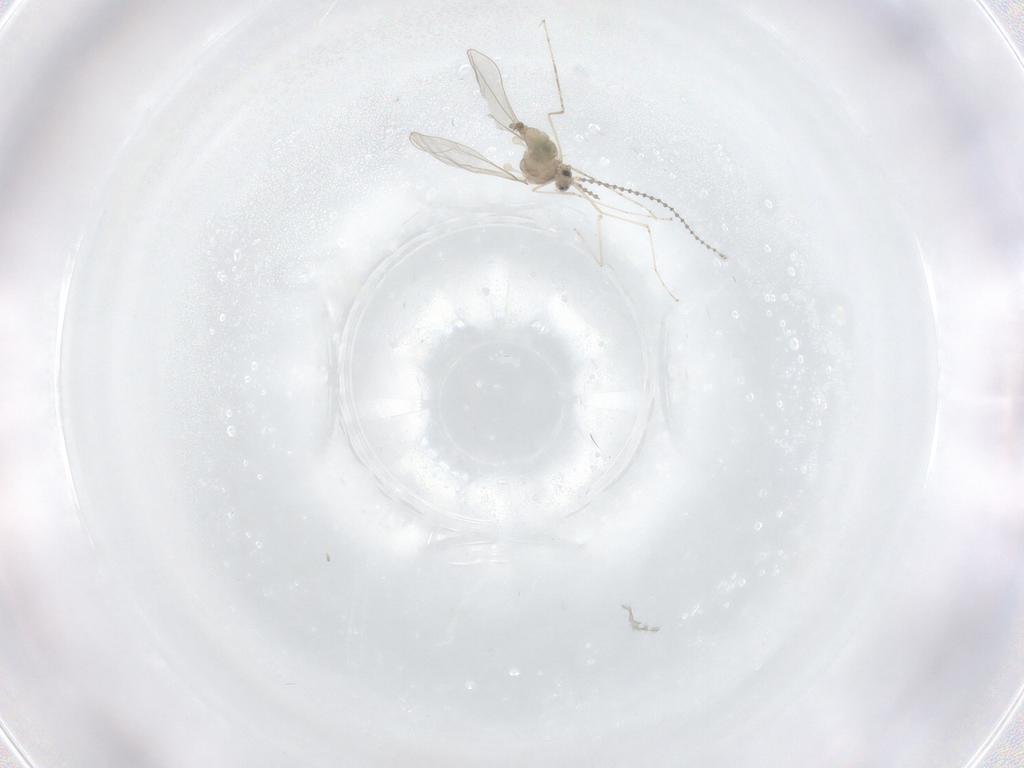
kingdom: Animalia
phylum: Arthropoda
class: Insecta
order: Diptera
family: Cecidomyiidae
